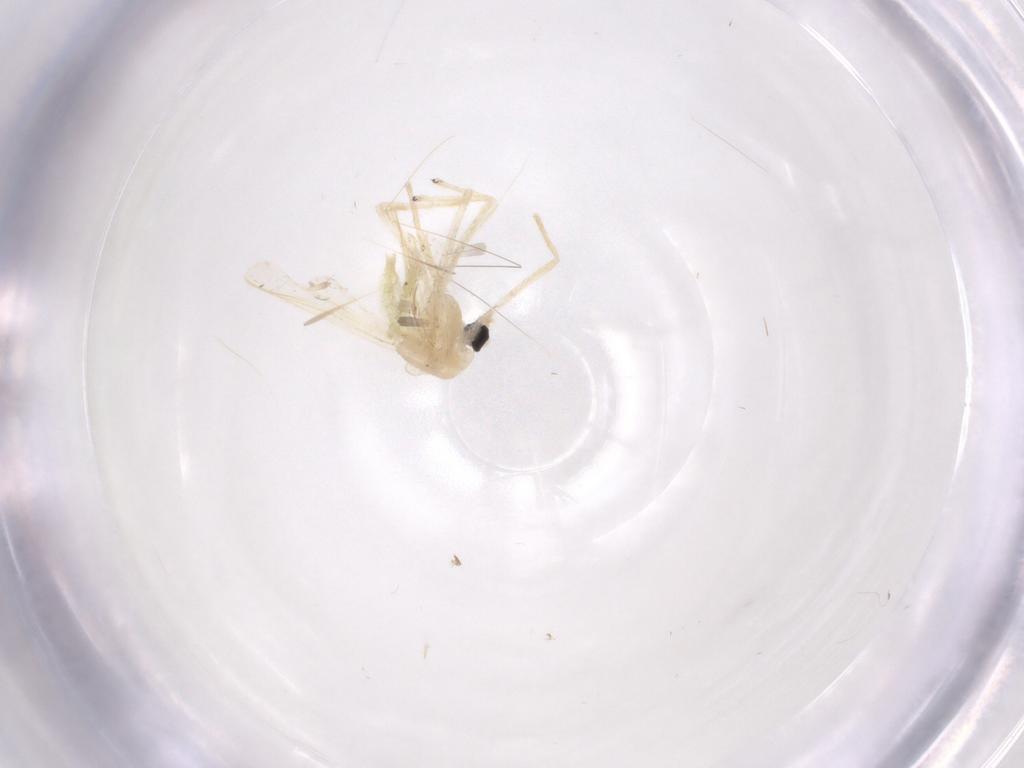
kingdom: Animalia
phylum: Arthropoda
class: Insecta
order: Diptera
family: Chironomidae
